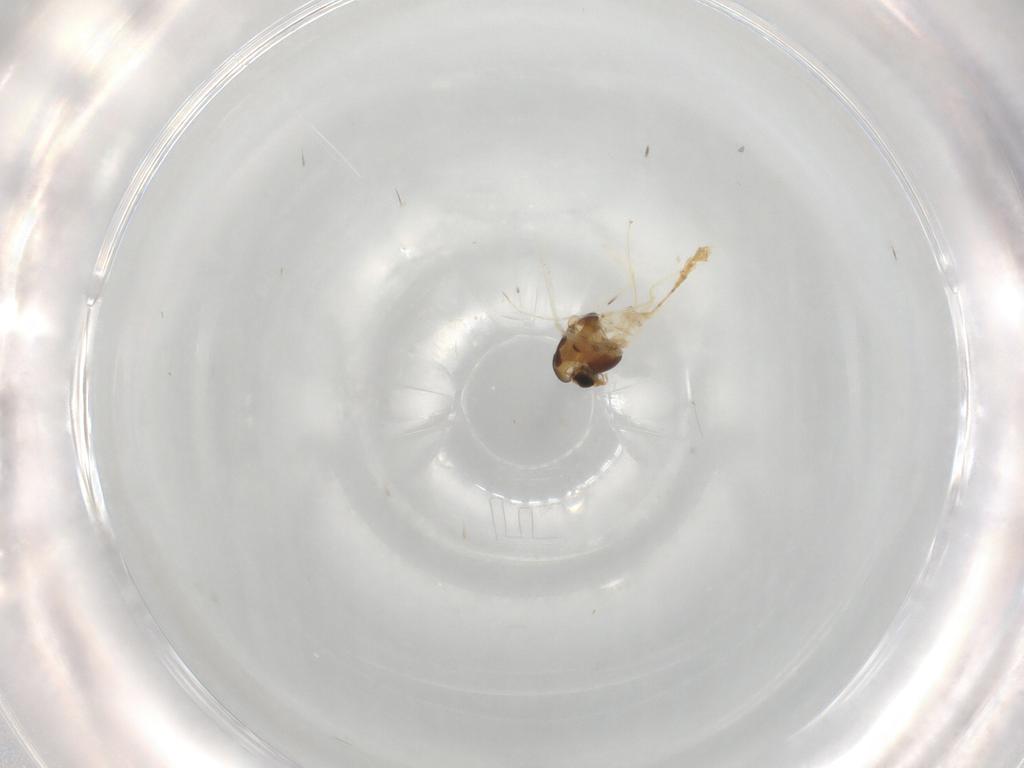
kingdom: Animalia
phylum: Arthropoda
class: Insecta
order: Diptera
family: Chironomidae
